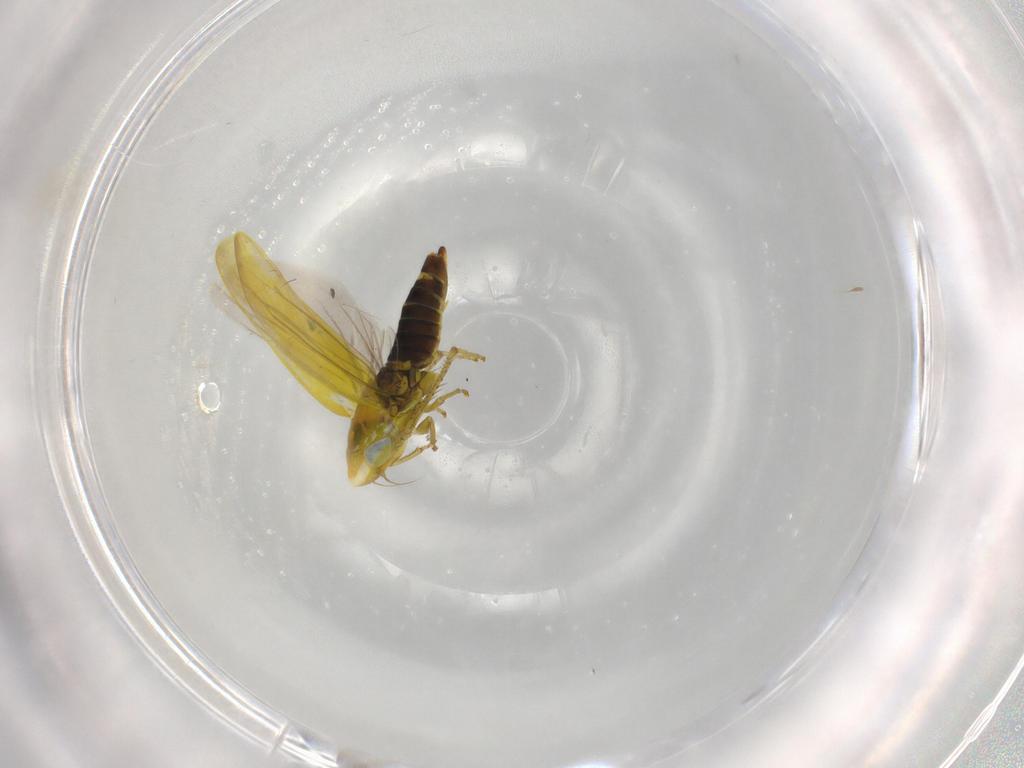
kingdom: Animalia
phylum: Arthropoda
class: Insecta
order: Hemiptera
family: Cicadellidae
